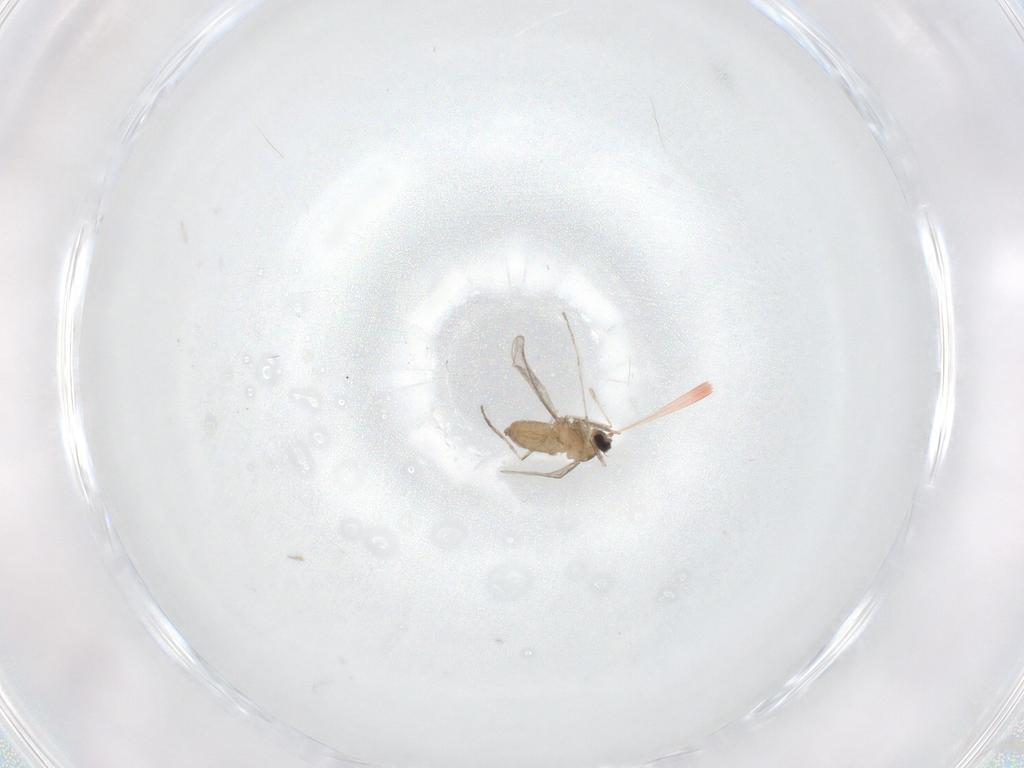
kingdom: Animalia
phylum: Arthropoda
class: Insecta
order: Diptera
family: Cecidomyiidae
